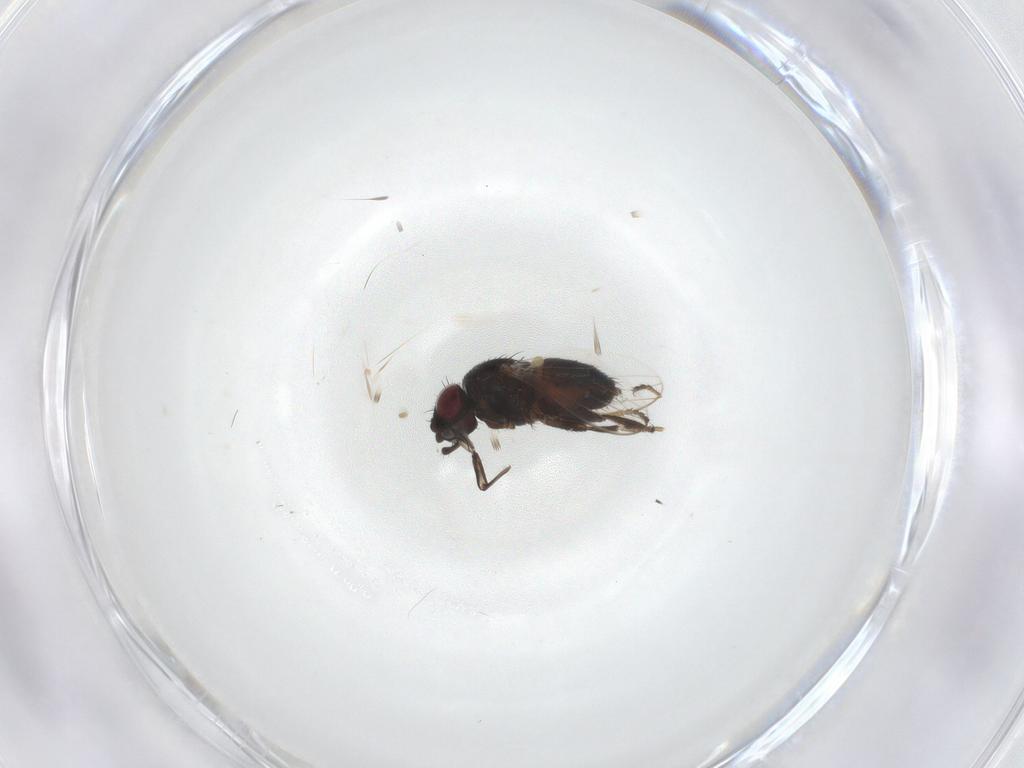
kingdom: Animalia
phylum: Arthropoda
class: Insecta
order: Diptera
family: Milichiidae
